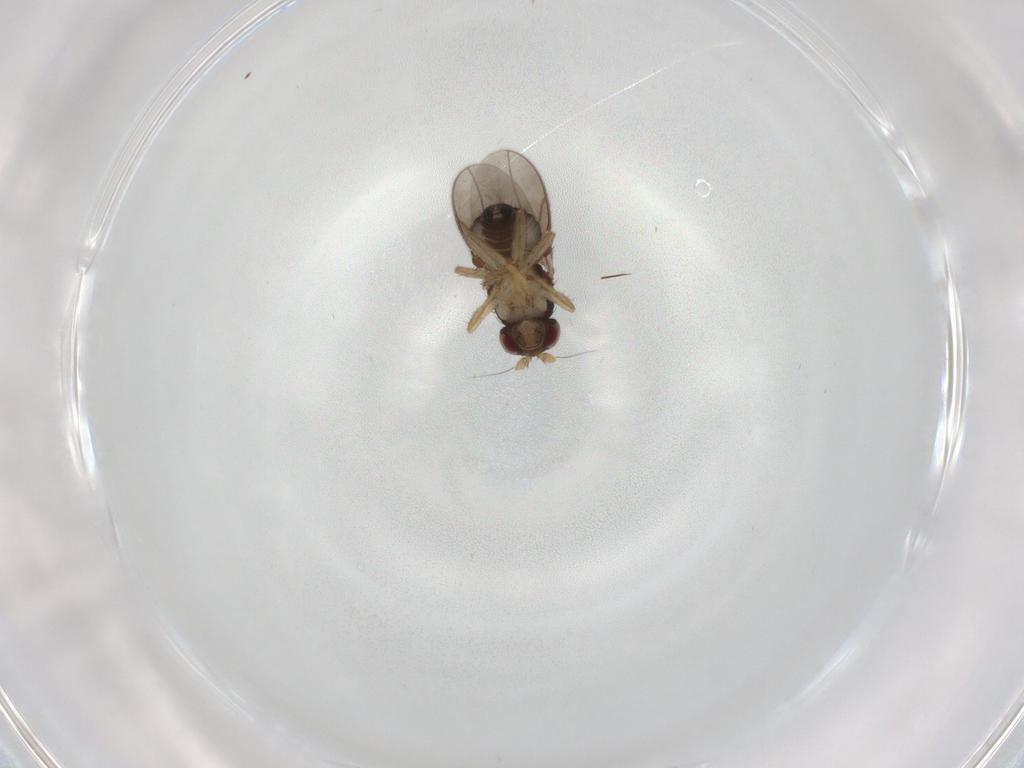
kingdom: Animalia
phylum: Arthropoda
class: Insecta
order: Diptera
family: Sphaeroceridae
